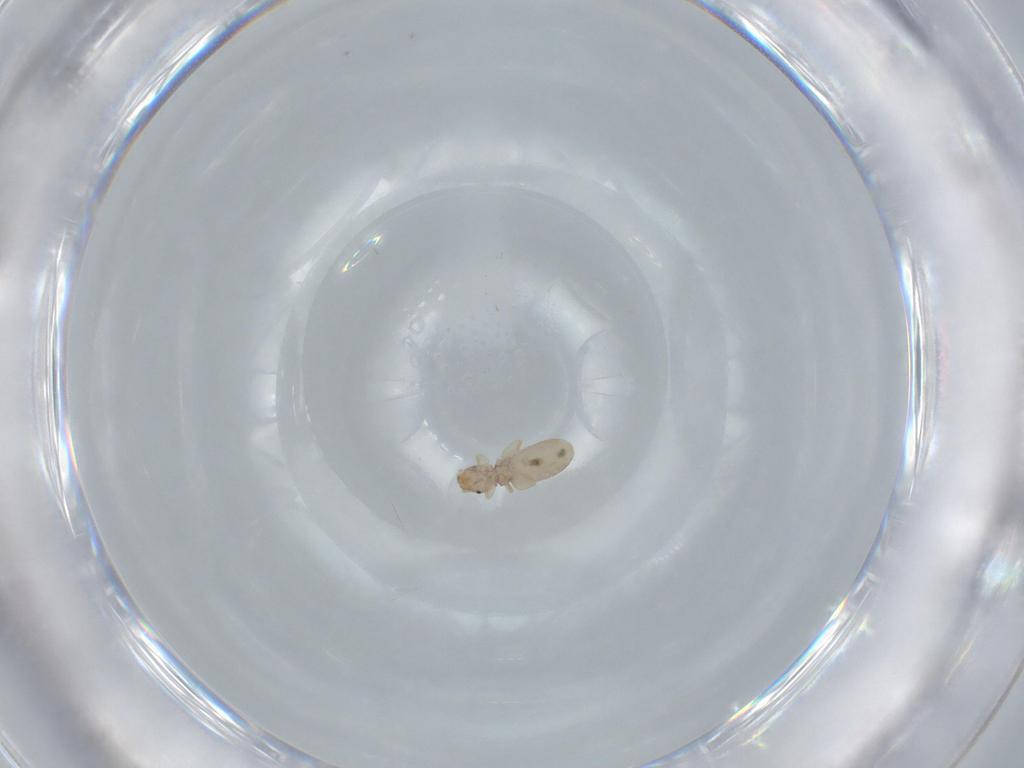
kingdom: Animalia
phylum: Arthropoda
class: Insecta
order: Psocodea
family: Liposcelididae
